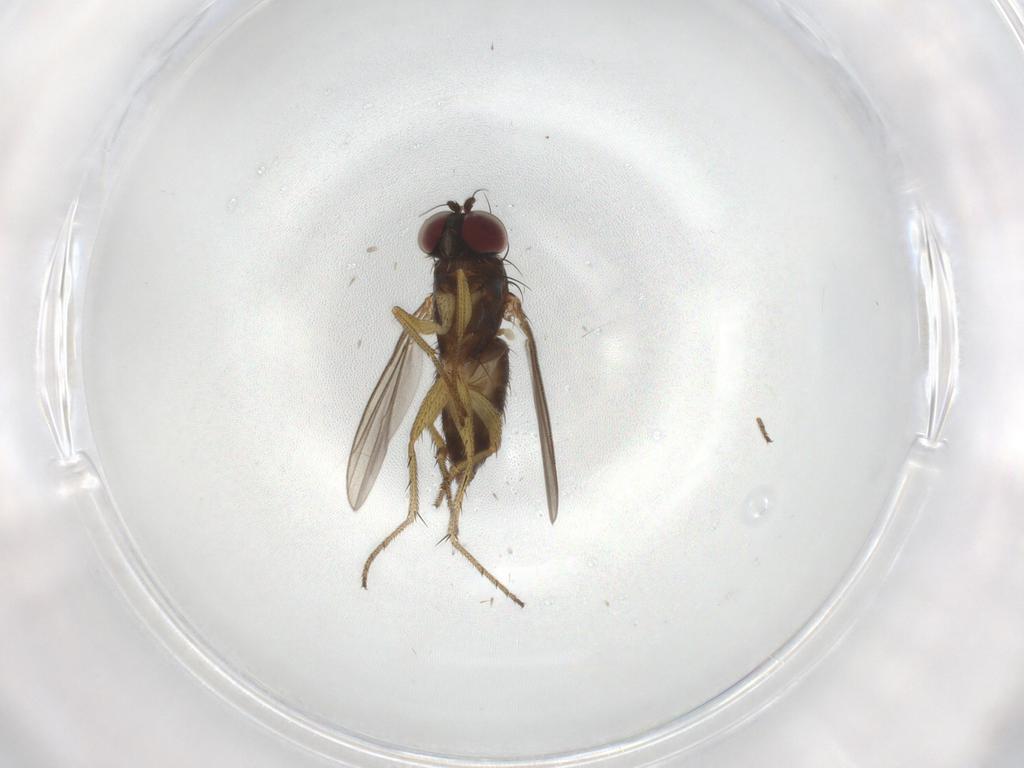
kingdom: Animalia
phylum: Arthropoda
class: Insecta
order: Diptera
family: Dolichopodidae
